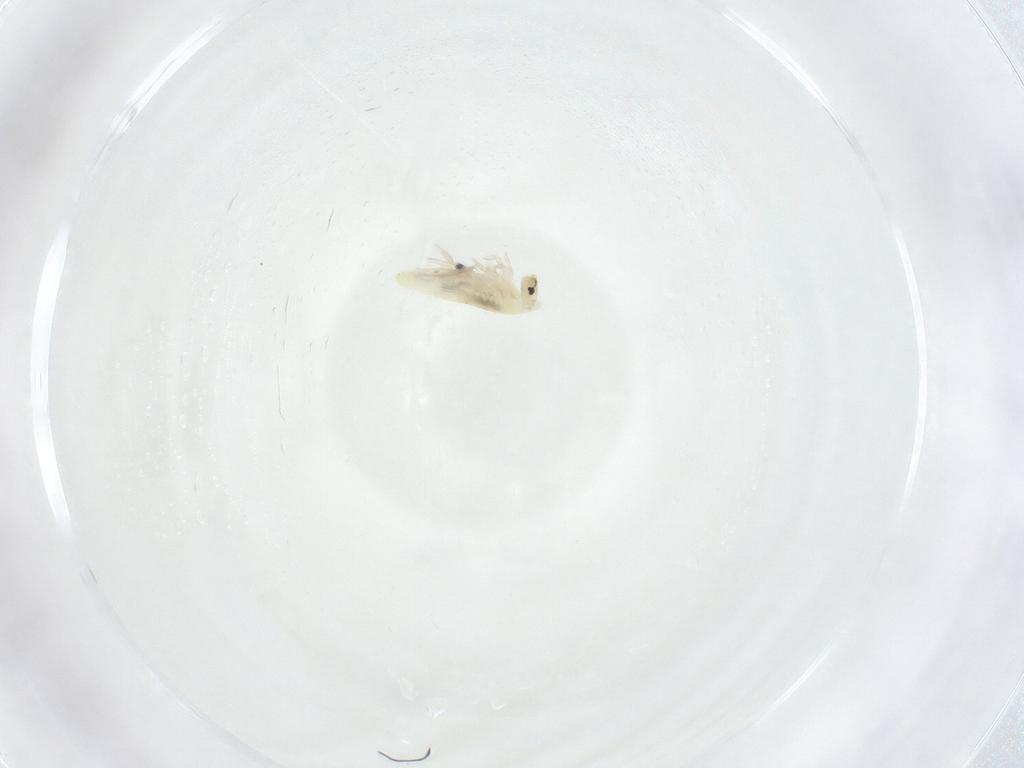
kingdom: Animalia
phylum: Arthropoda
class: Collembola
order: Entomobryomorpha
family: Entomobryidae
